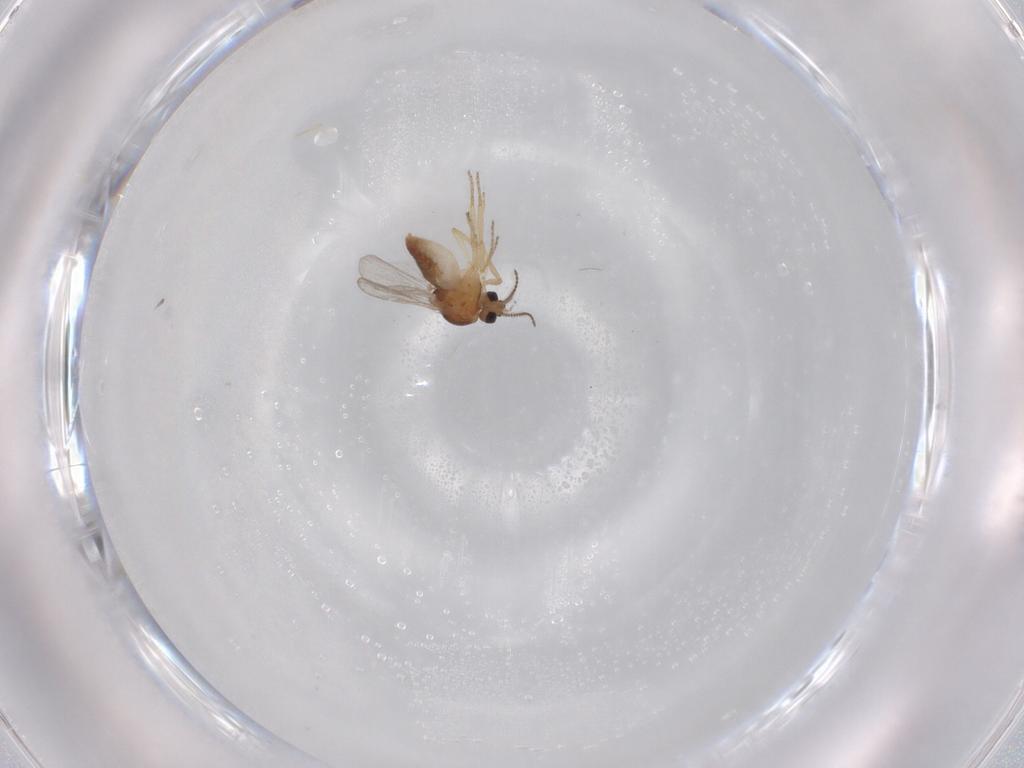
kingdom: Animalia
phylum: Arthropoda
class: Insecta
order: Diptera
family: Ceratopogonidae
